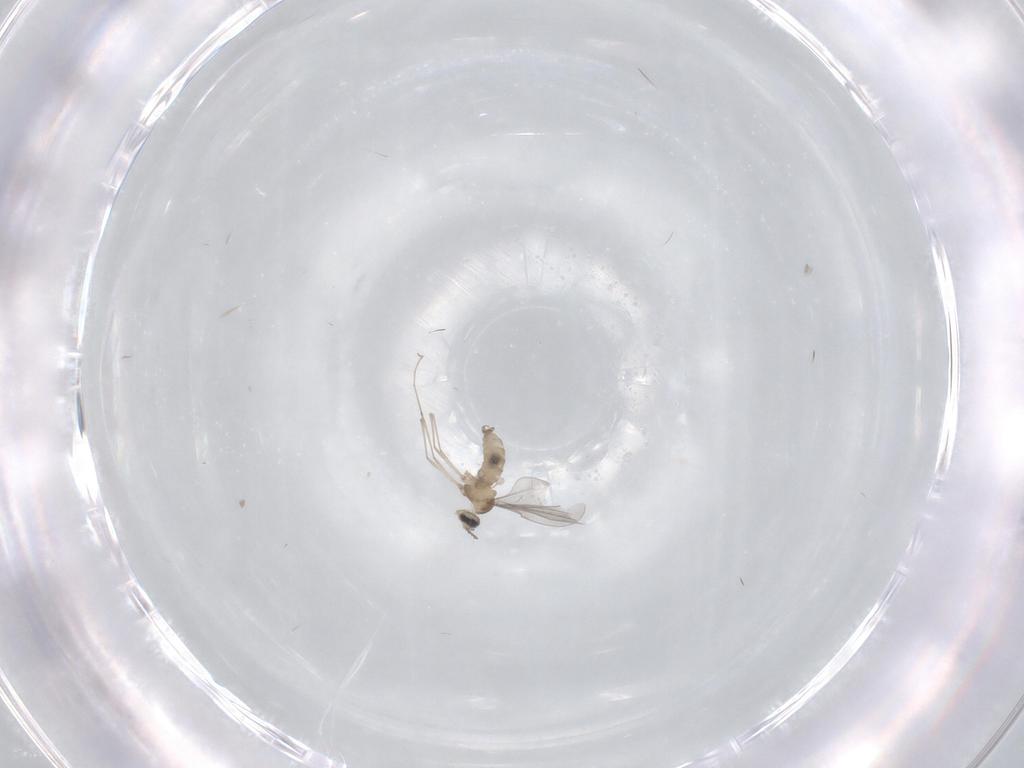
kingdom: Animalia
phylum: Arthropoda
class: Insecta
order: Diptera
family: Cecidomyiidae
